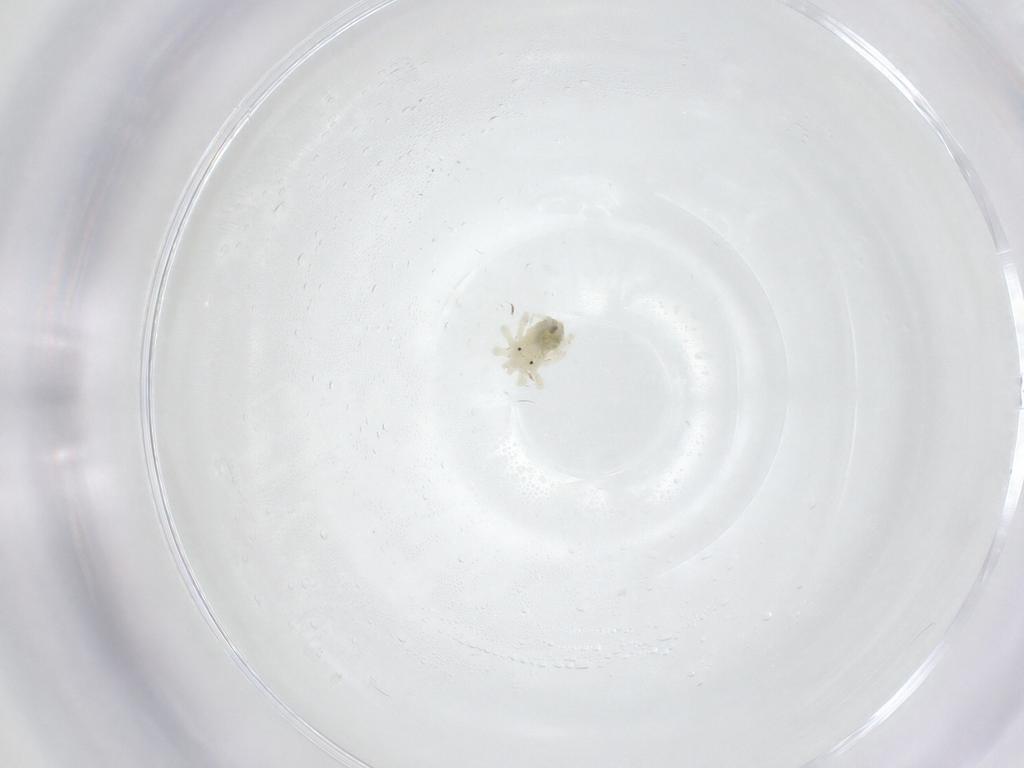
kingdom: Animalia
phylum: Arthropoda
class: Arachnida
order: Trombidiformes
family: Anystidae
